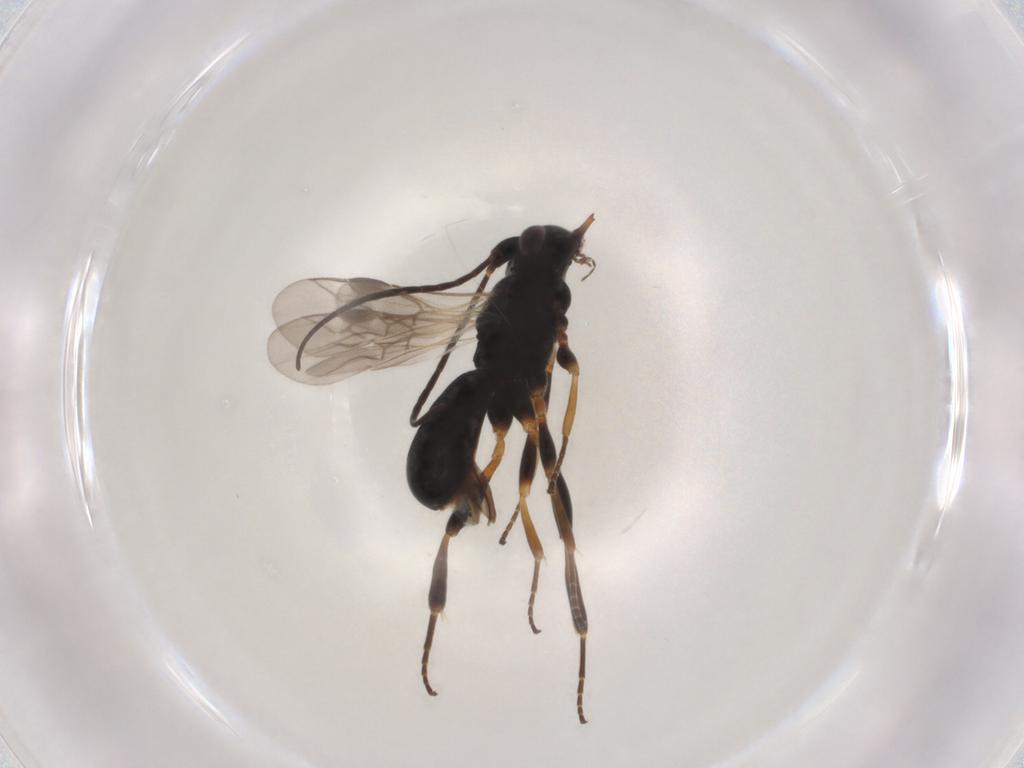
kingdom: Animalia
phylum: Arthropoda
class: Insecta
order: Hymenoptera
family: Braconidae
